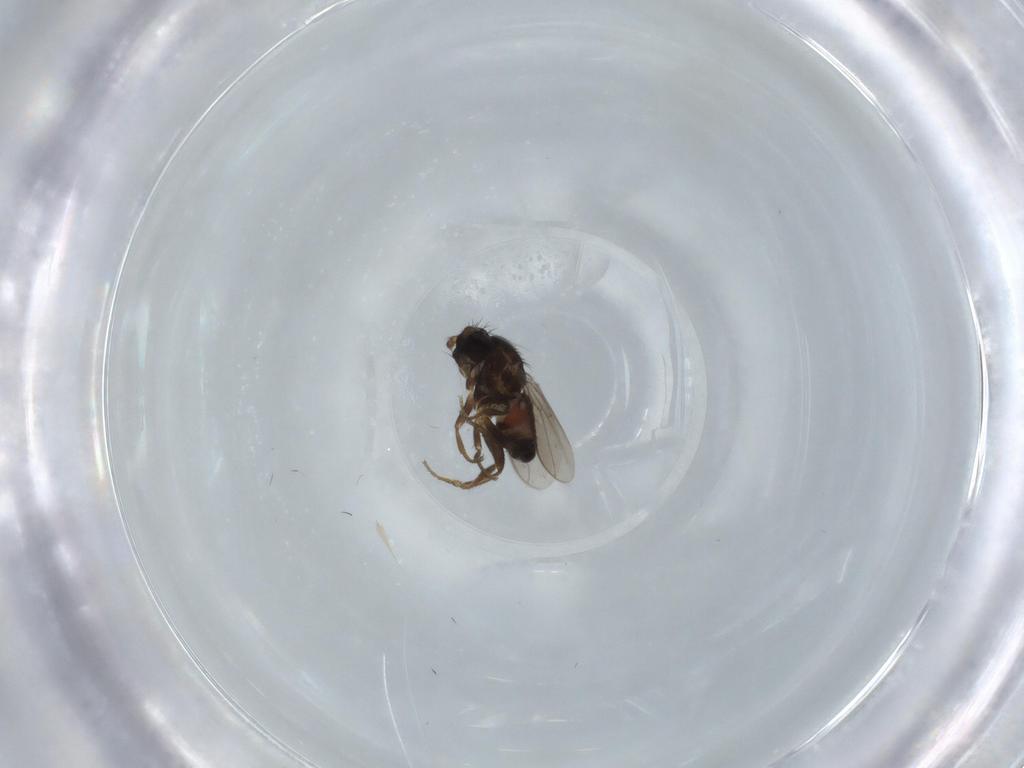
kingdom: Animalia
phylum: Arthropoda
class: Insecta
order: Diptera
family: Sphaeroceridae
